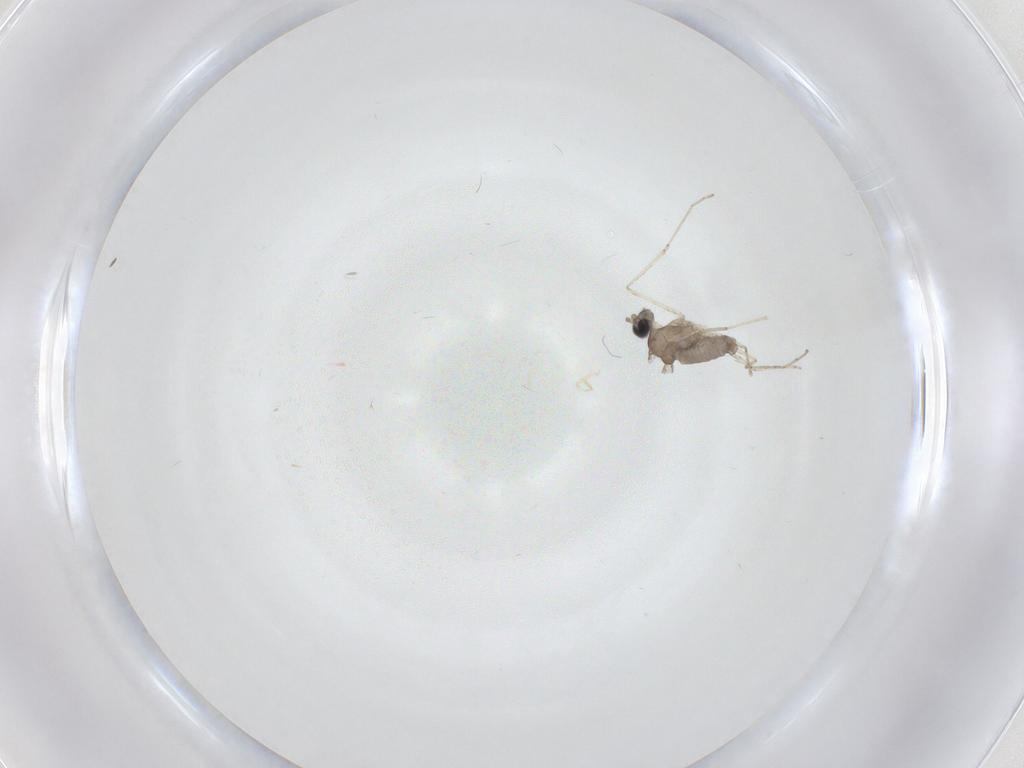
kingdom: Animalia
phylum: Arthropoda
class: Insecta
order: Diptera
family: Cecidomyiidae
